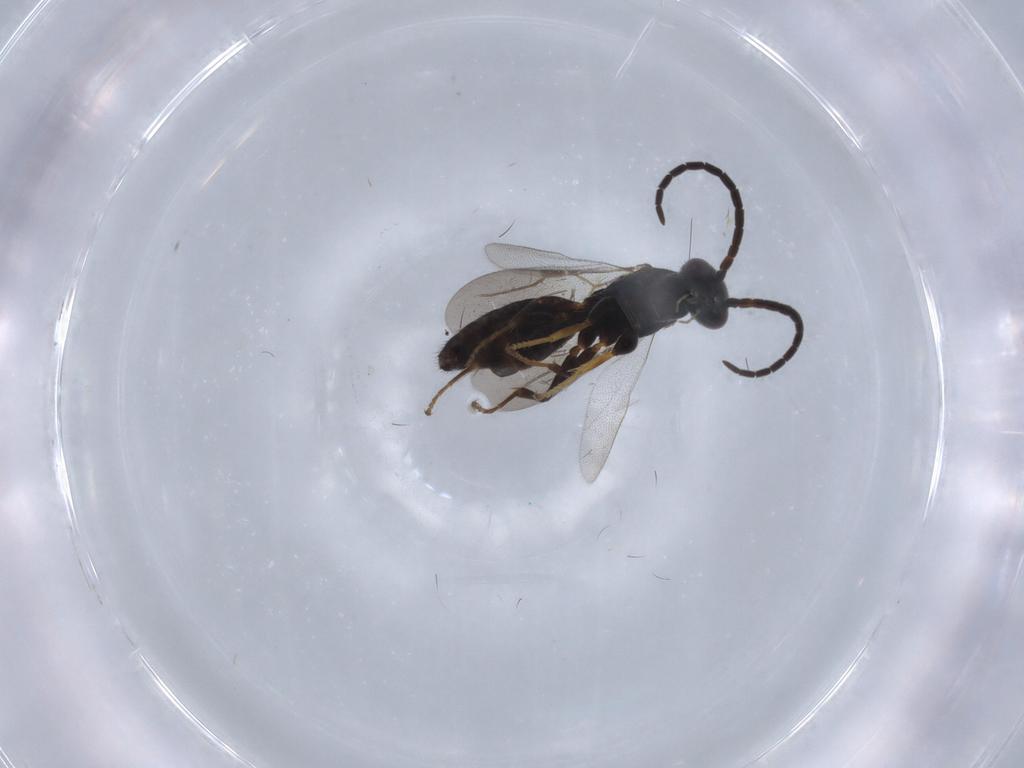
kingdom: Animalia
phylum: Arthropoda
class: Insecta
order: Hymenoptera
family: Bethylidae
